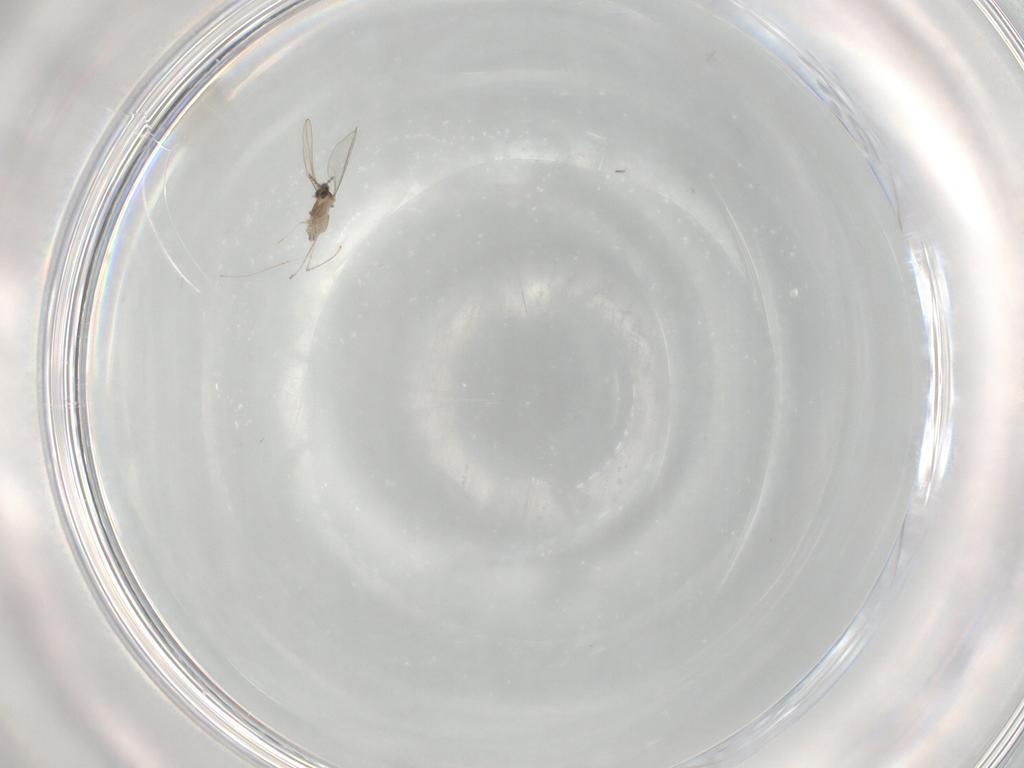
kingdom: Animalia
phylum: Arthropoda
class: Insecta
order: Diptera
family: Cecidomyiidae
